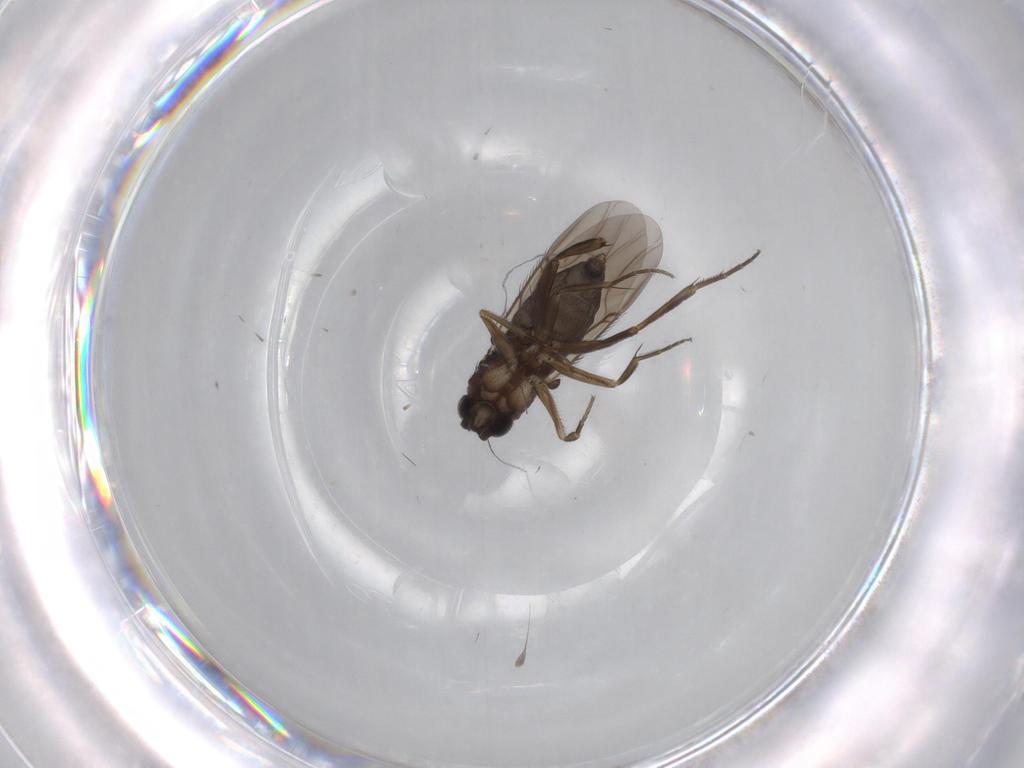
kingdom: Animalia
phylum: Arthropoda
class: Insecta
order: Diptera
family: Phoridae
